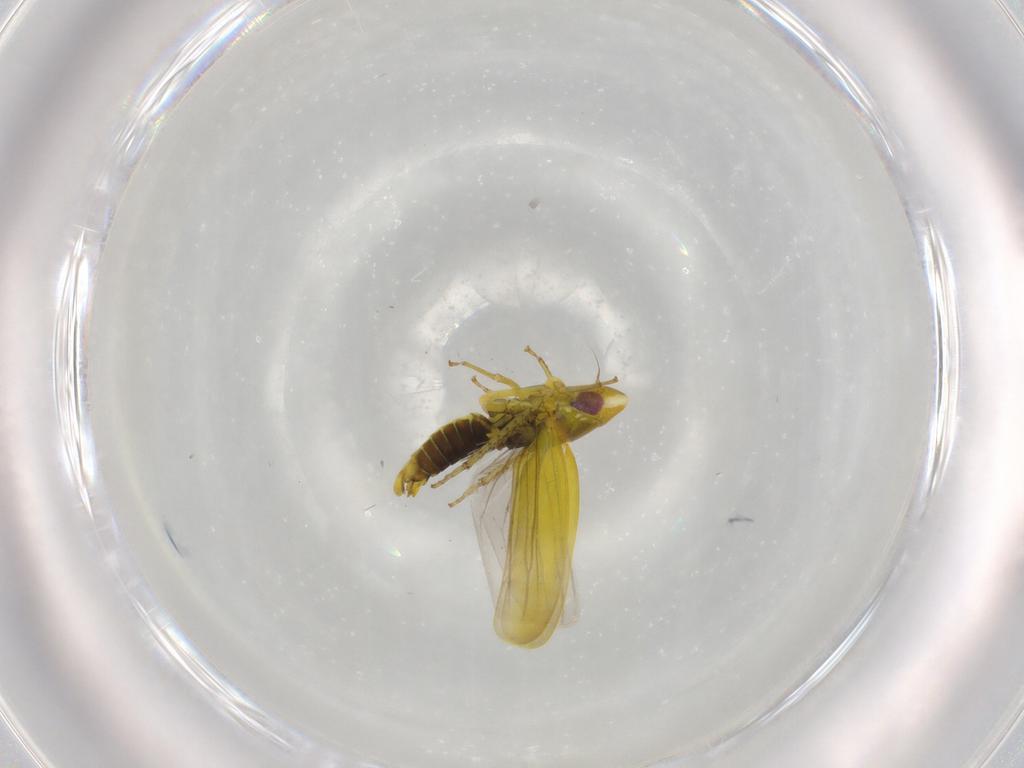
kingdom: Animalia
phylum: Arthropoda
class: Insecta
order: Hemiptera
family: Cicadellidae
